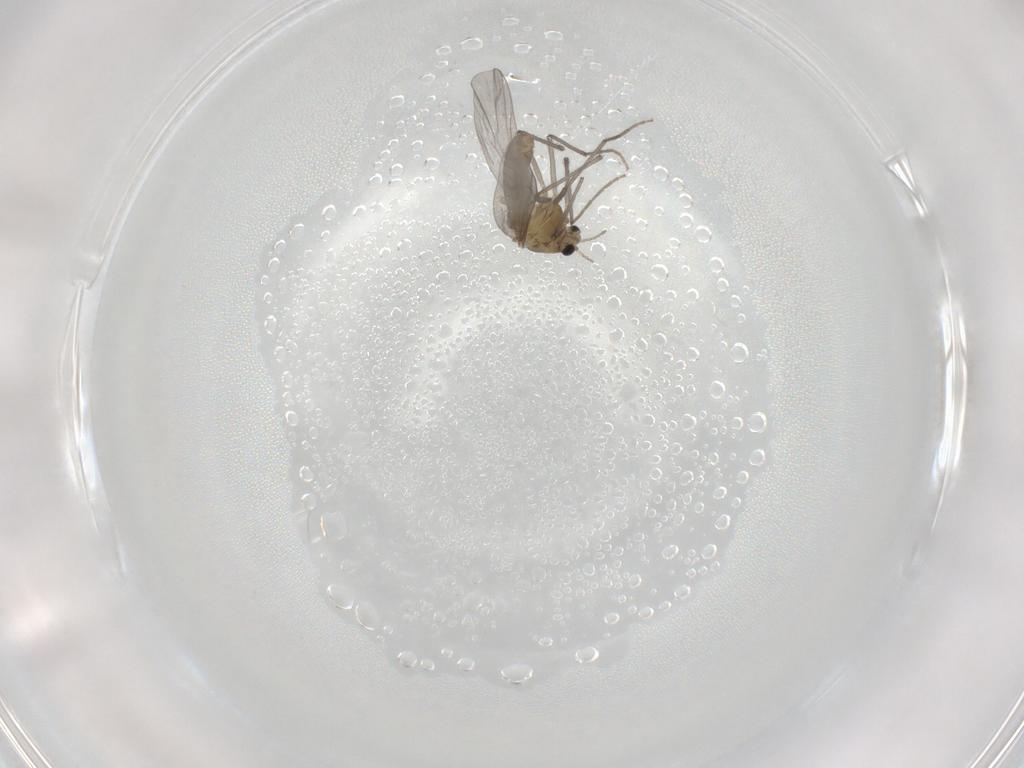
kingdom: Animalia
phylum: Arthropoda
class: Insecta
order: Diptera
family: Chironomidae
